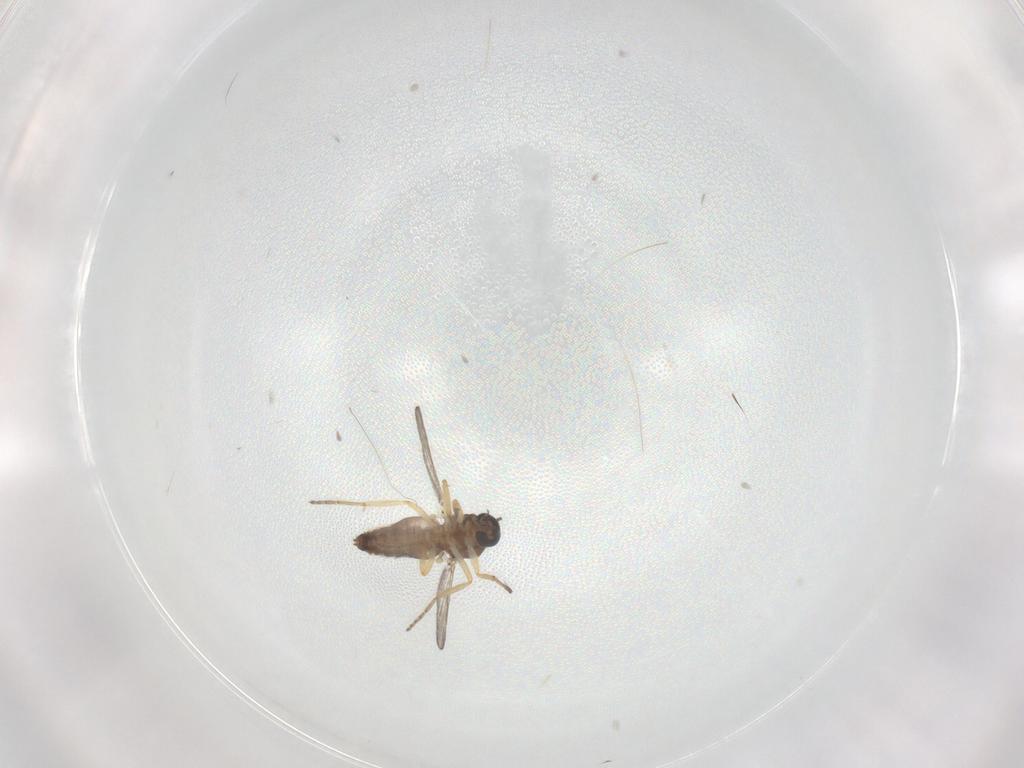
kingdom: Animalia
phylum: Arthropoda
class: Insecta
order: Diptera
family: Ceratopogonidae
